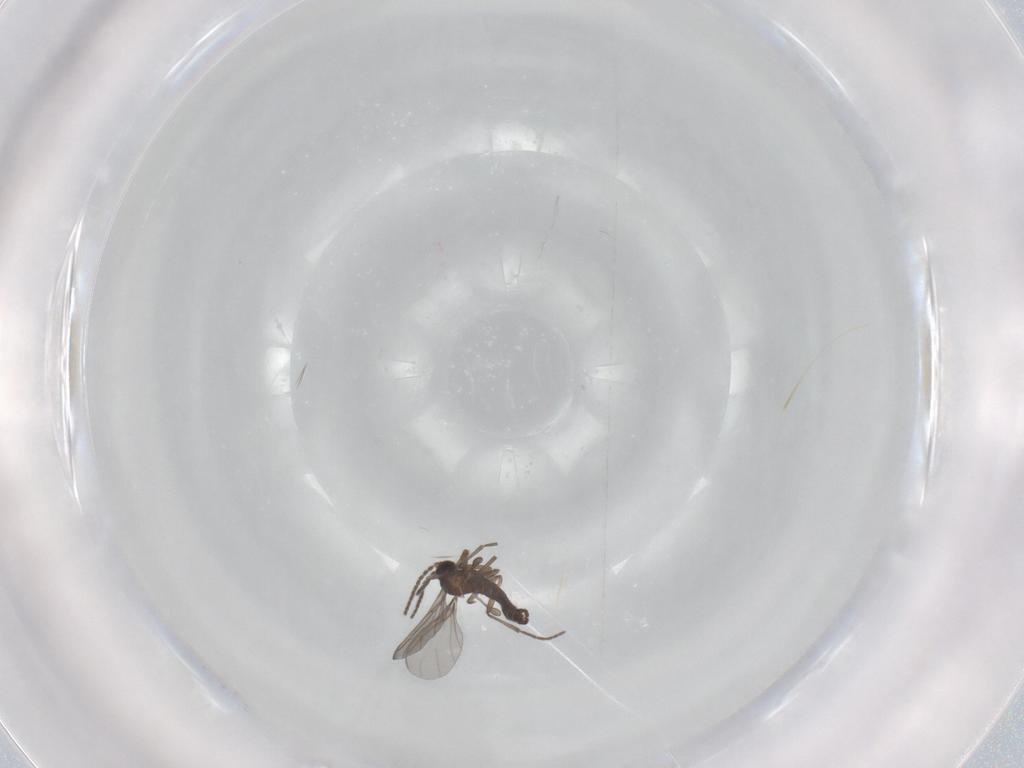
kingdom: Animalia
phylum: Arthropoda
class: Insecta
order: Diptera
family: Sciaridae
